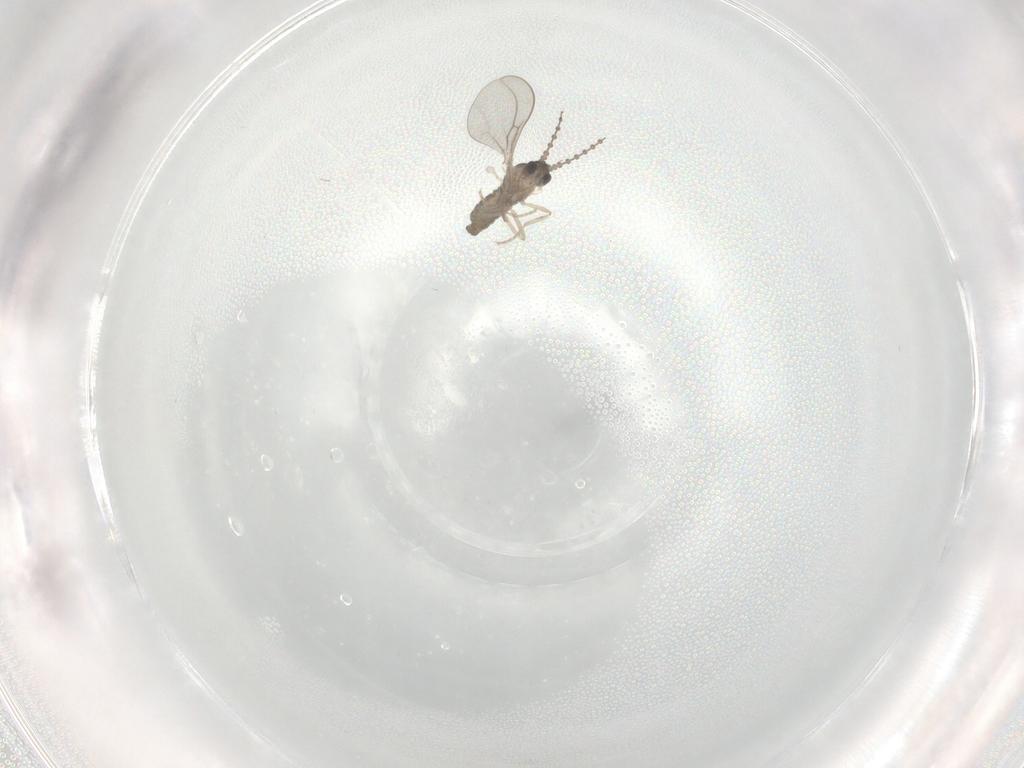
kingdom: Animalia
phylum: Arthropoda
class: Insecta
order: Diptera
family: Cecidomyiidae
